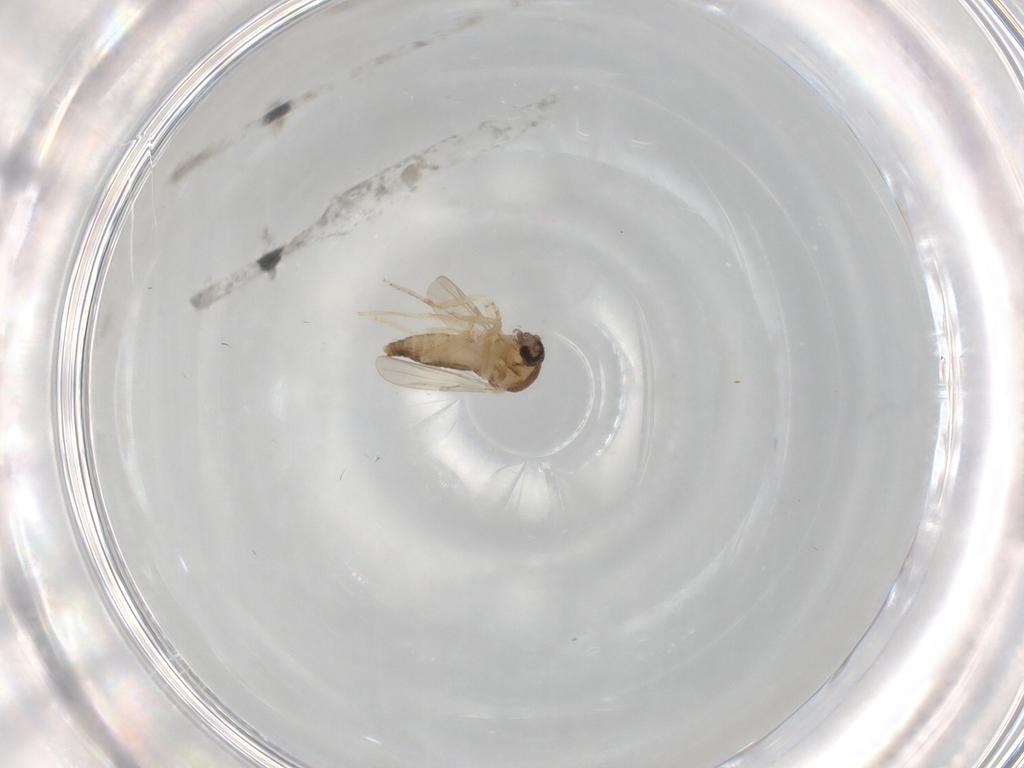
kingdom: Animalia
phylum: Arthropoda
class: Insecta
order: Diptera
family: Ceratopogonidae
